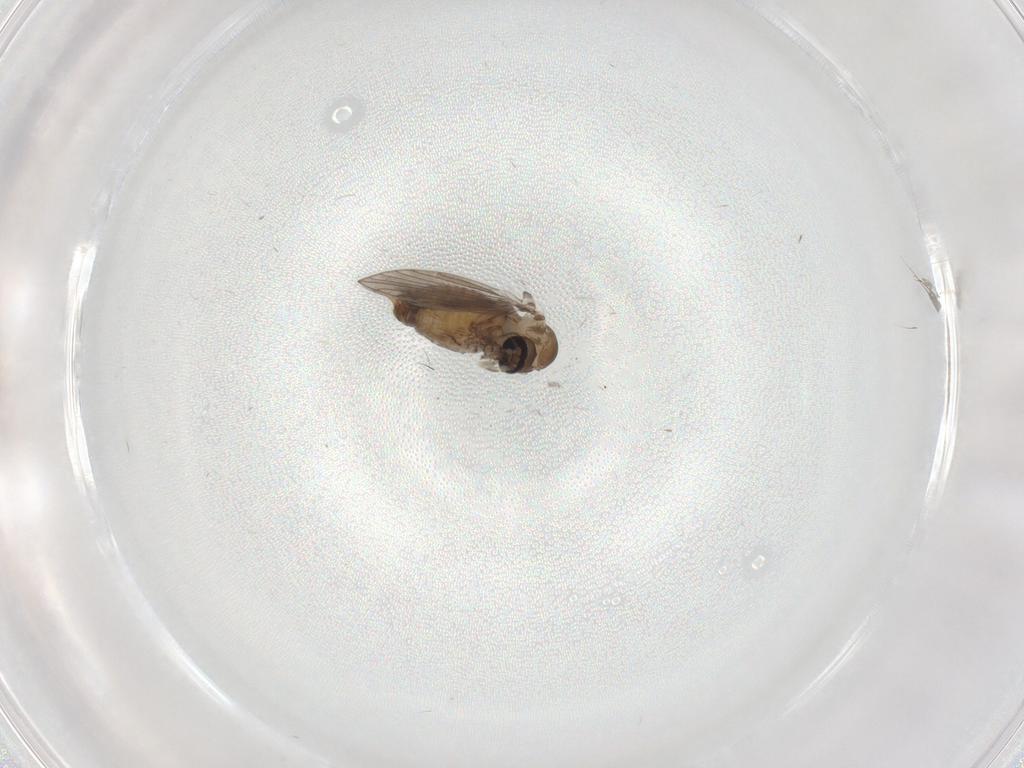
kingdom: Animalia
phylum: Arthropoda
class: Insecta
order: Diptera
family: Psychodidae
